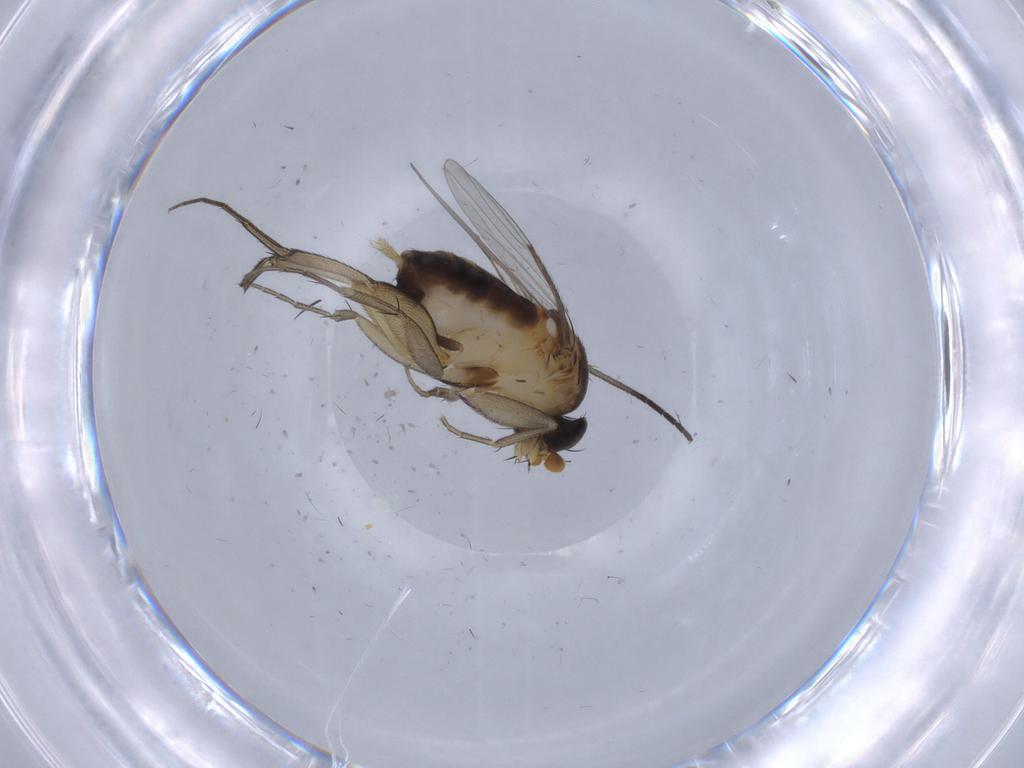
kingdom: Animalia
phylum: Arthropoda
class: Insecta
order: Diptera
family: Sciaridae
